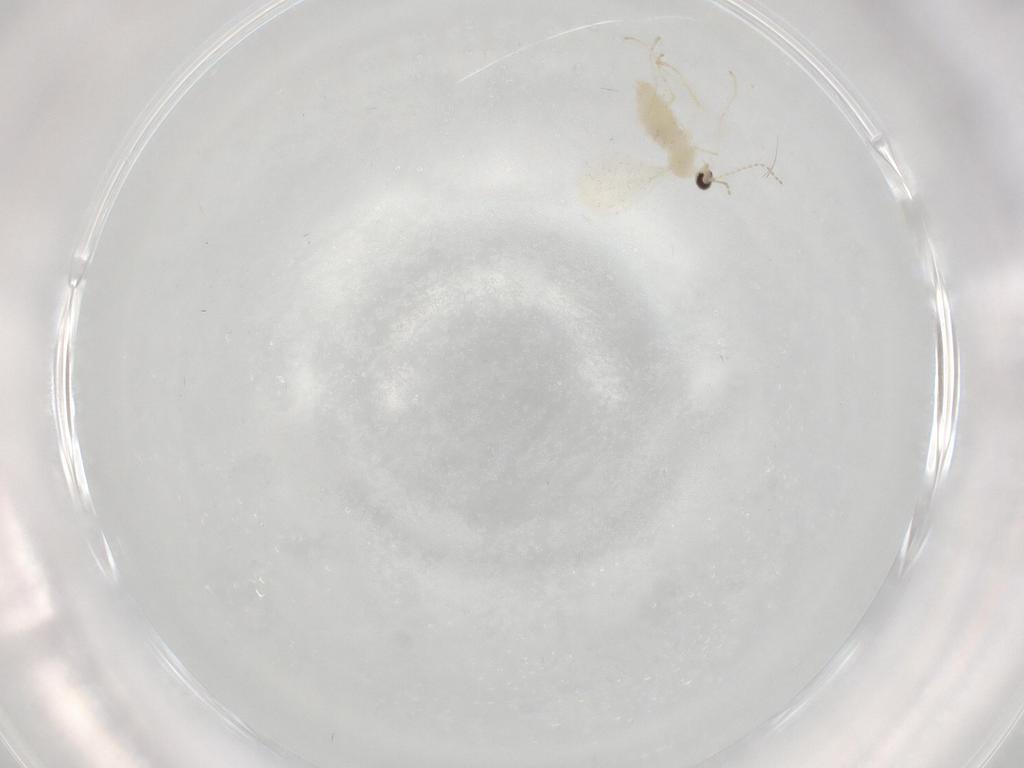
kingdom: Animalia
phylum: Arthropoda
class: Insecta
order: Diptera
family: Cecidomyiidae
